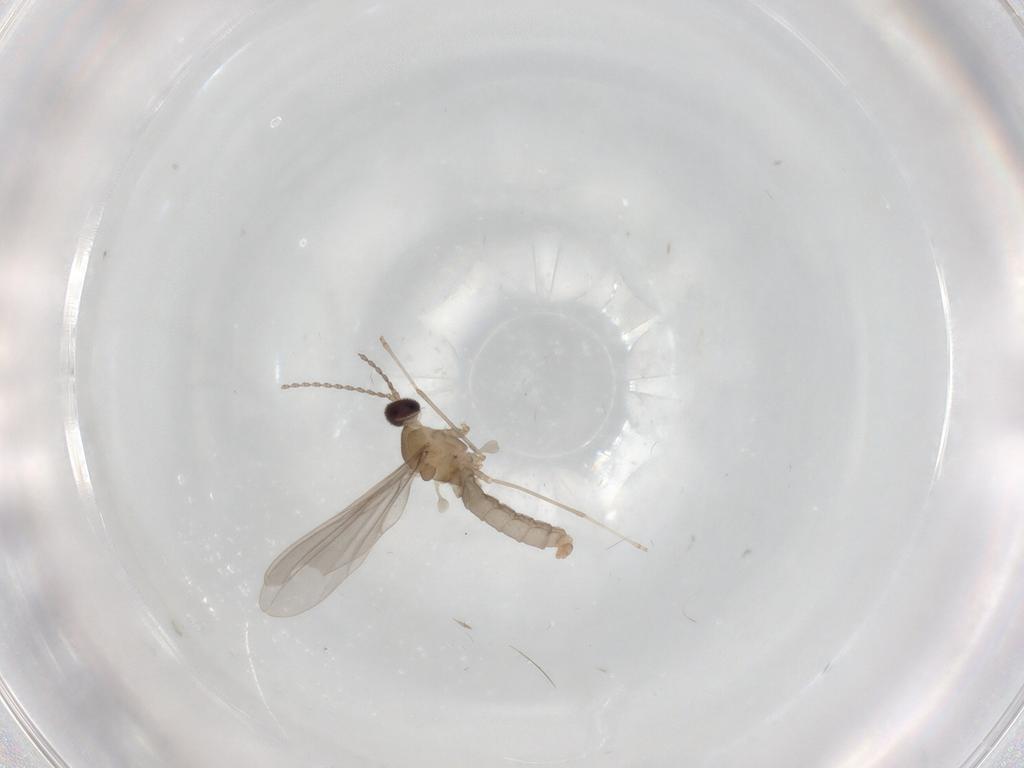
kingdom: Animalia
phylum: Arthropoda
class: Insecta
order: Diptera
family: Cecidomyiidae
